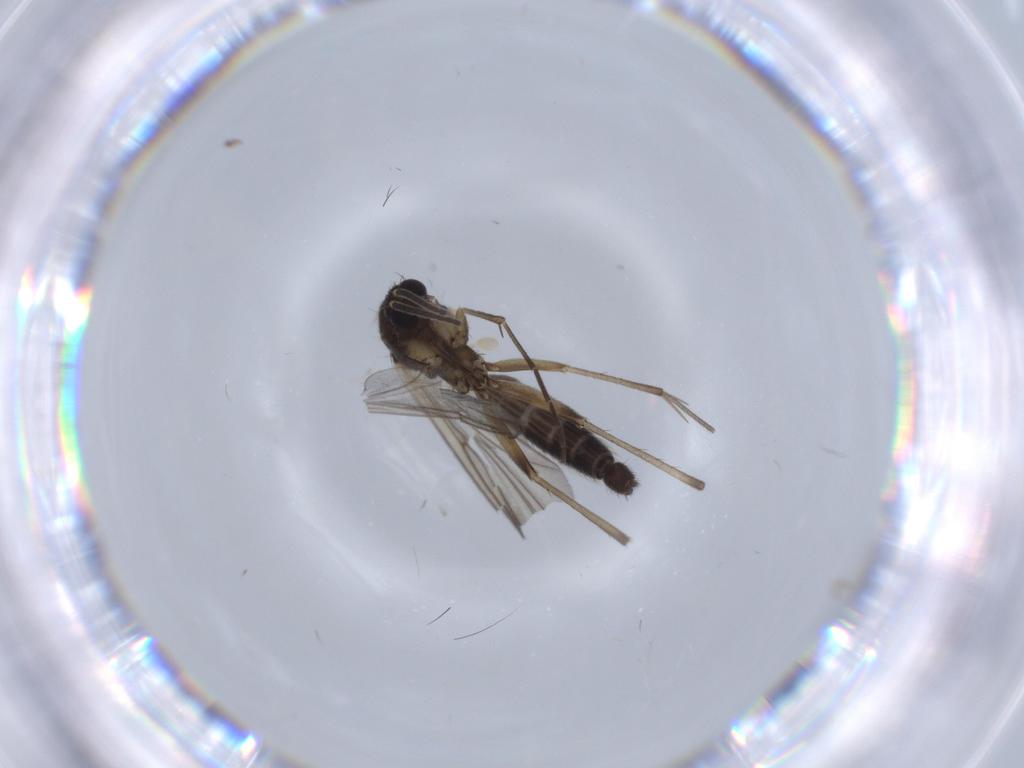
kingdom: Animalia
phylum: Arthropoda
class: Insecta
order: Diptera
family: Mycetophilidae
